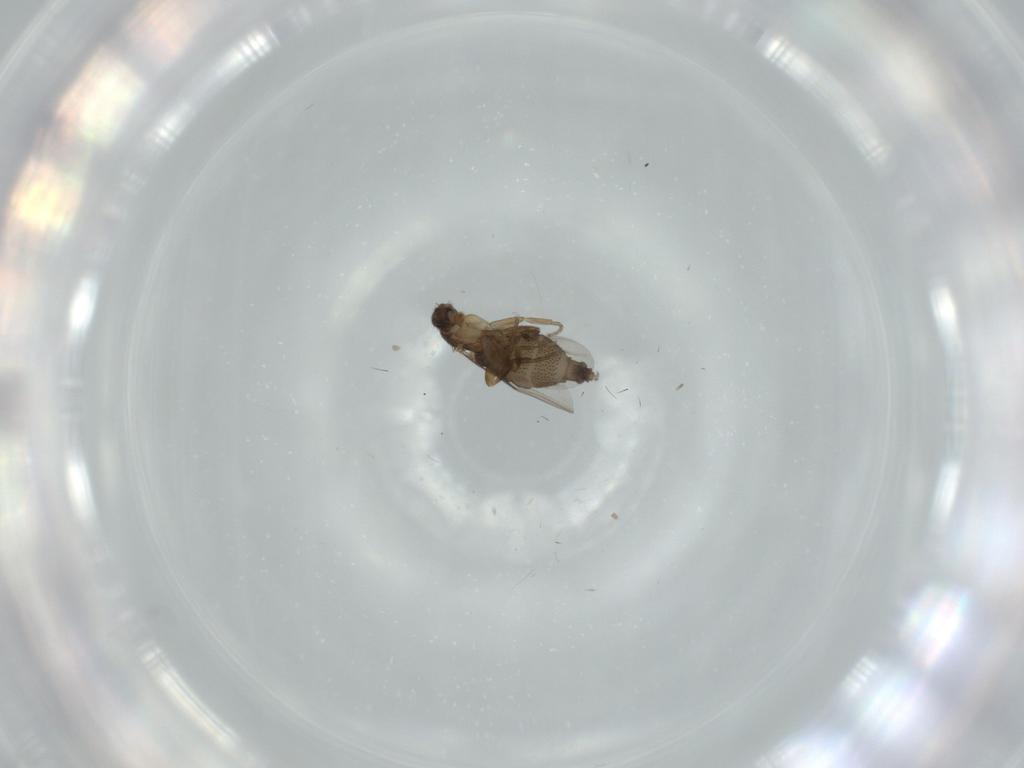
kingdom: Animalia
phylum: Arthropoda
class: Insecta
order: Diptera
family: Phoridae
